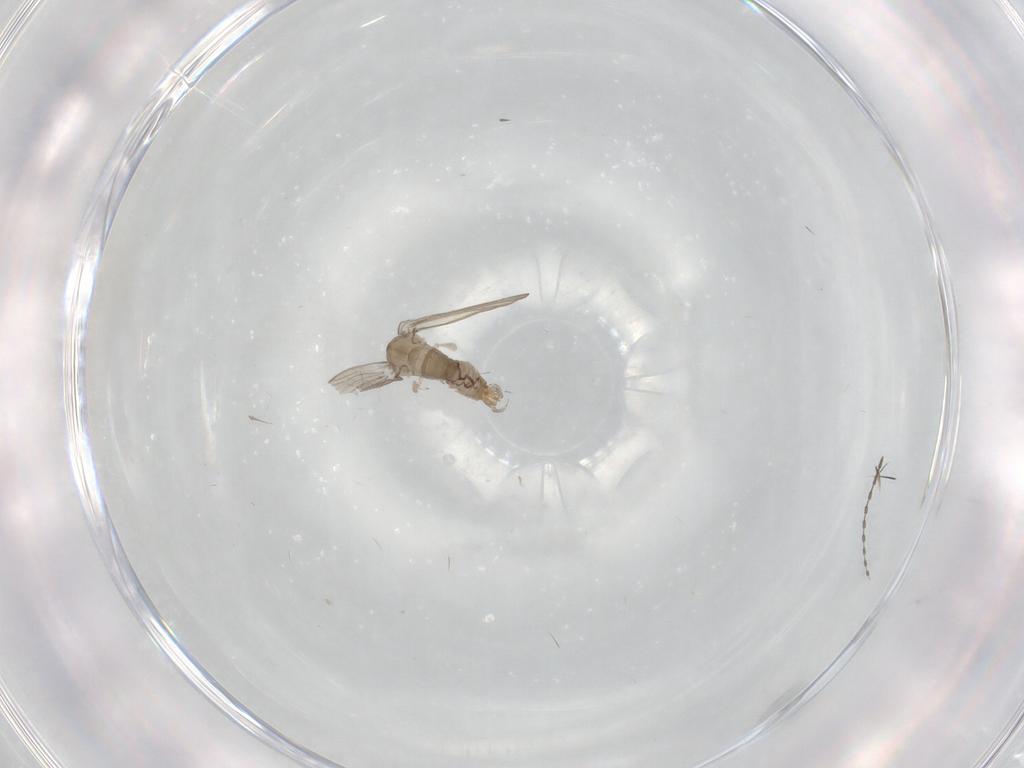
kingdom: Animalia
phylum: Arthropoda
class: Insecta
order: Diptera
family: Psychodidae
